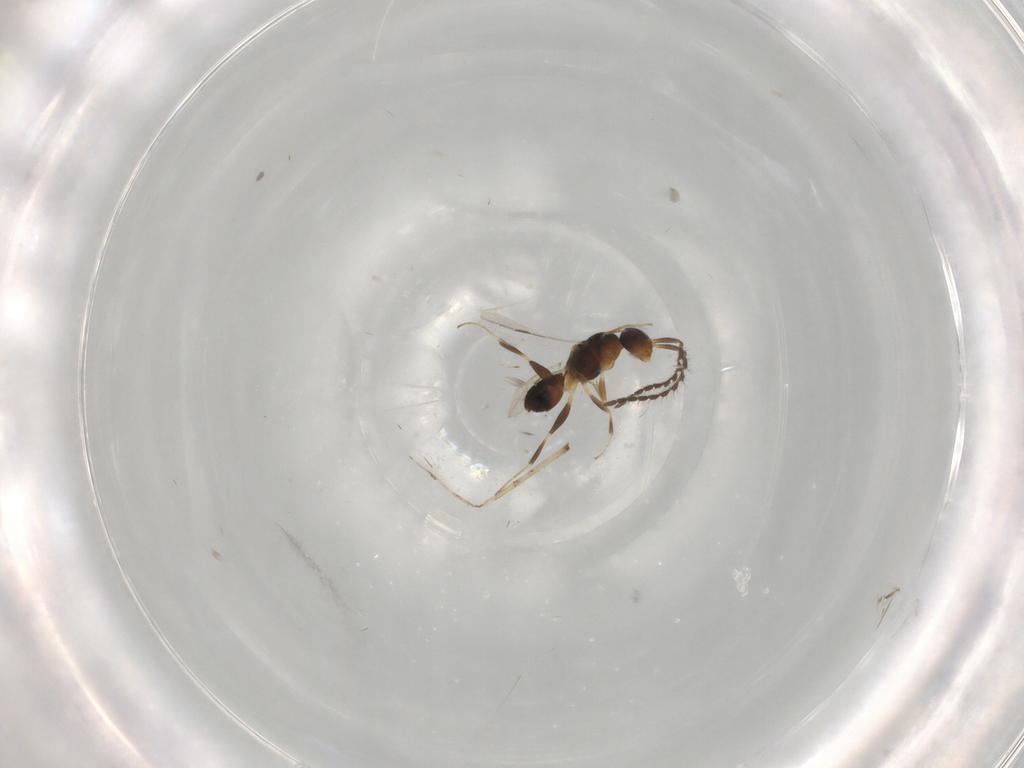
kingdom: Animalia
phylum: Arthropoda
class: Insecta
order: Hymenoptera
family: Halictidae
